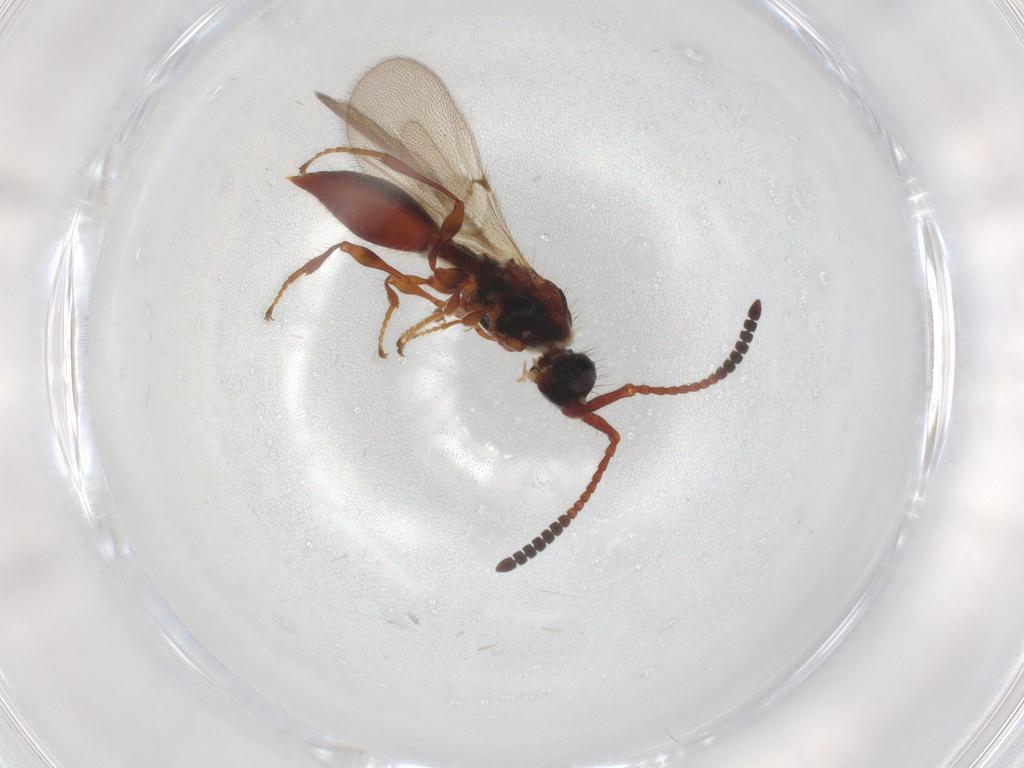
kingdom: Animalia
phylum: Arthropoda
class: Insecta
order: Hymenoptera
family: Diapriidae
